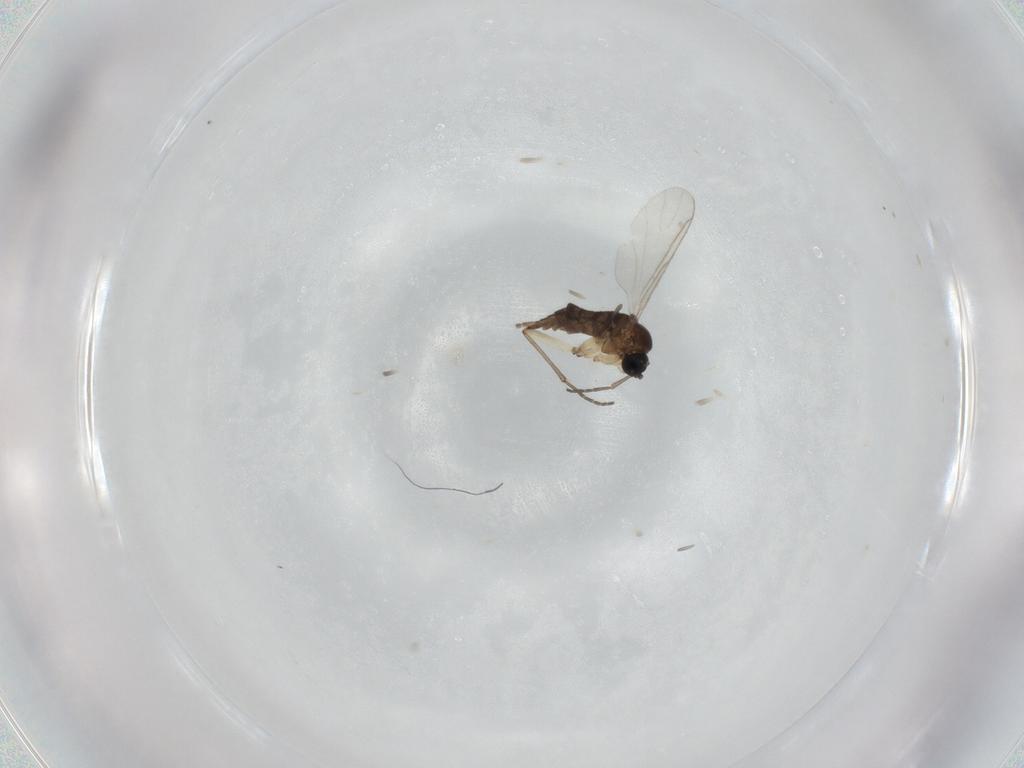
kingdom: Animalia
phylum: Arthropoda
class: Insecta
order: Diptera
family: Sciaridae
